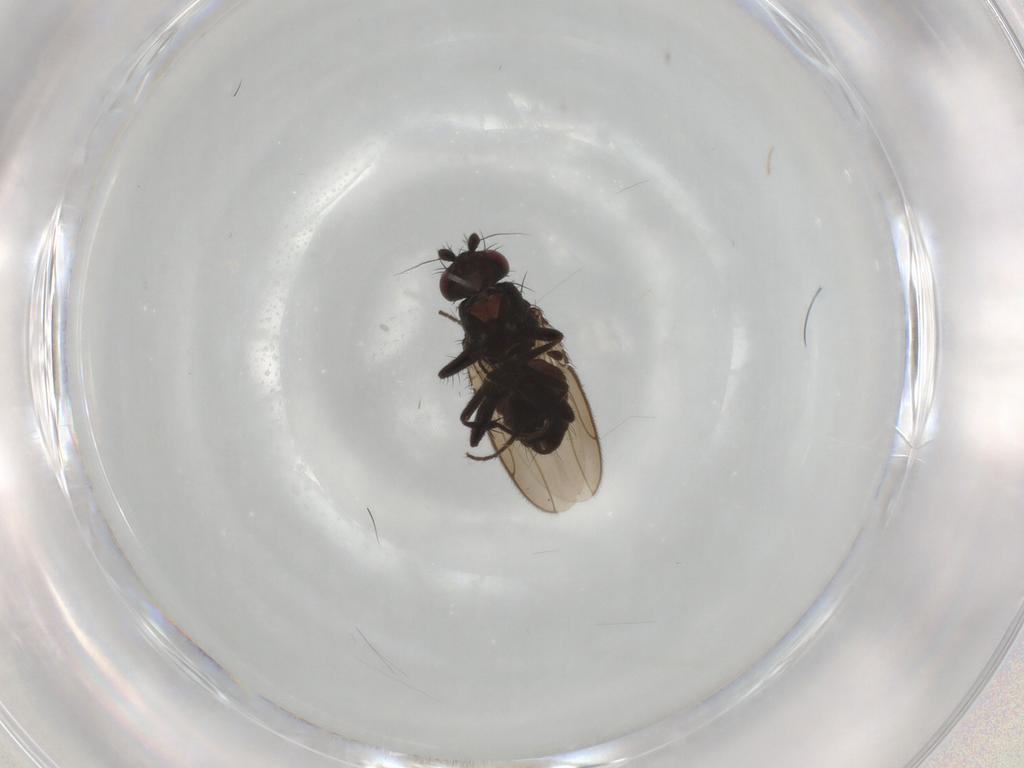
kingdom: Animalia
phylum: Arthropoda
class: Insecta
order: Diptera
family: Sphaeroceridae
